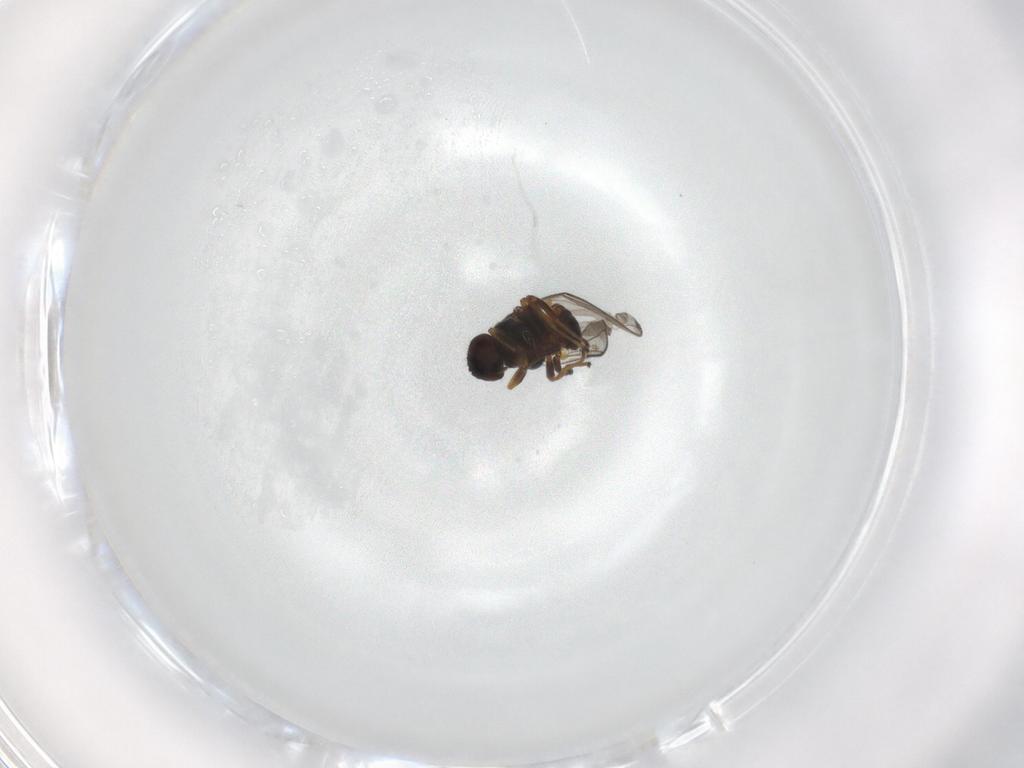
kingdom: Animalia
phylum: Arthropoda
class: Insecta
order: Diptera
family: Chloropidae
